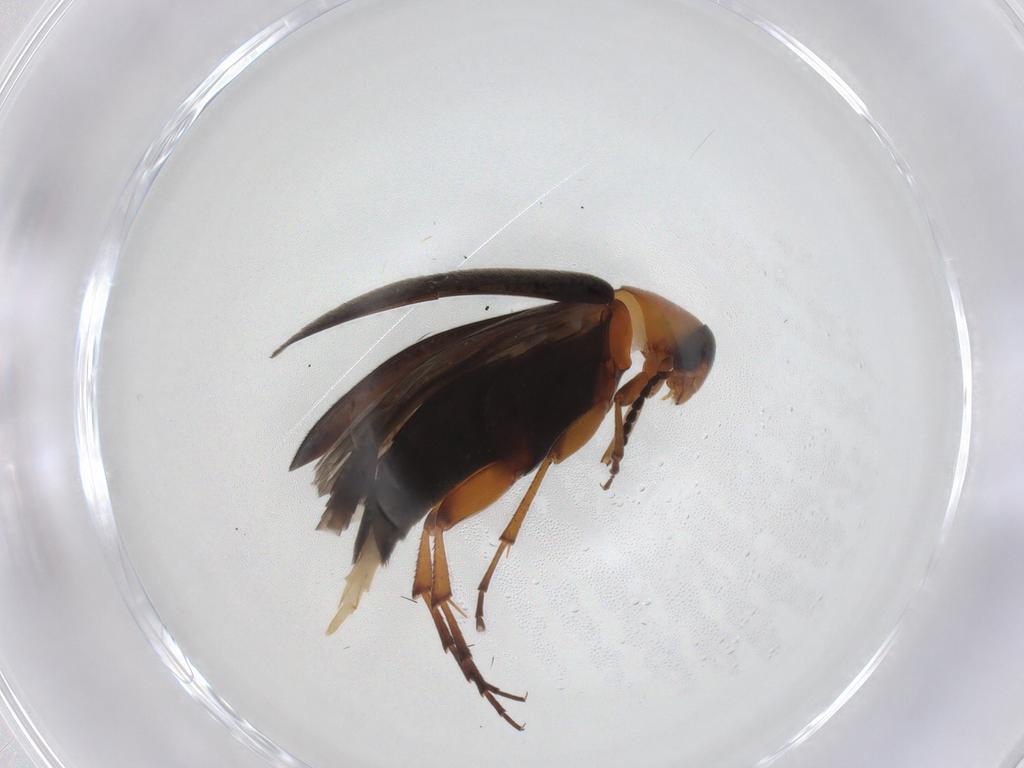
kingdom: Animalia
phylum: Arthropoda
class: Insecta
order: Coleoptera
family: Scraptiidae
